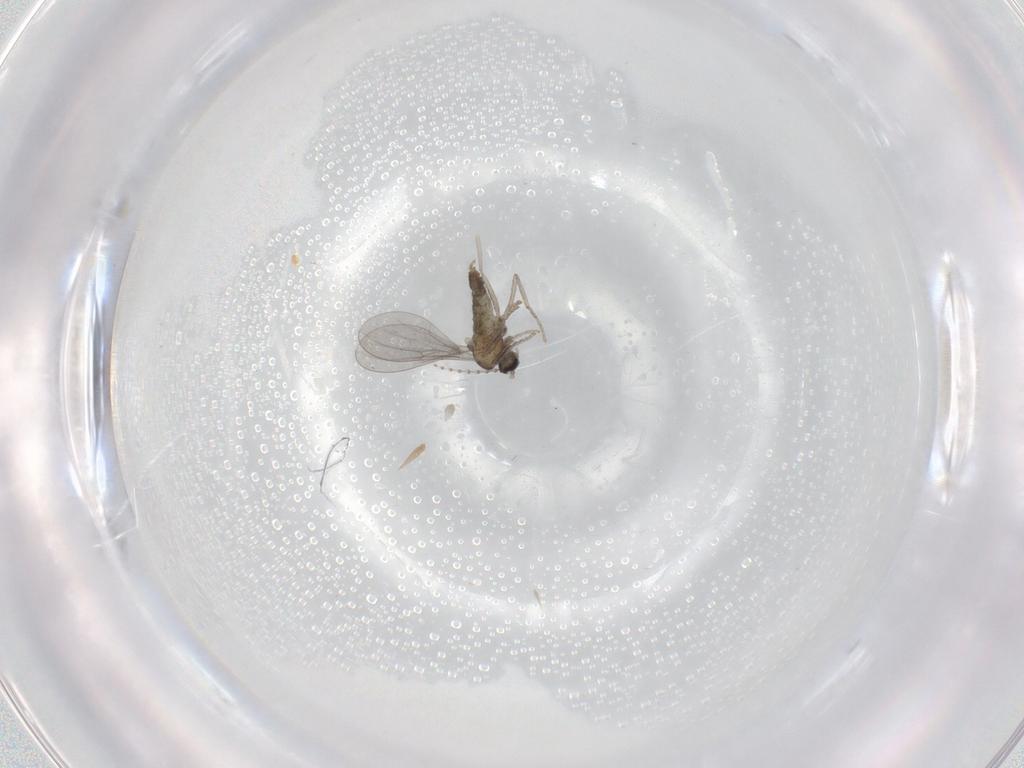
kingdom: Animalia
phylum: Arthropoda
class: Insecta
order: Diptera
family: Cecidomyiidae
